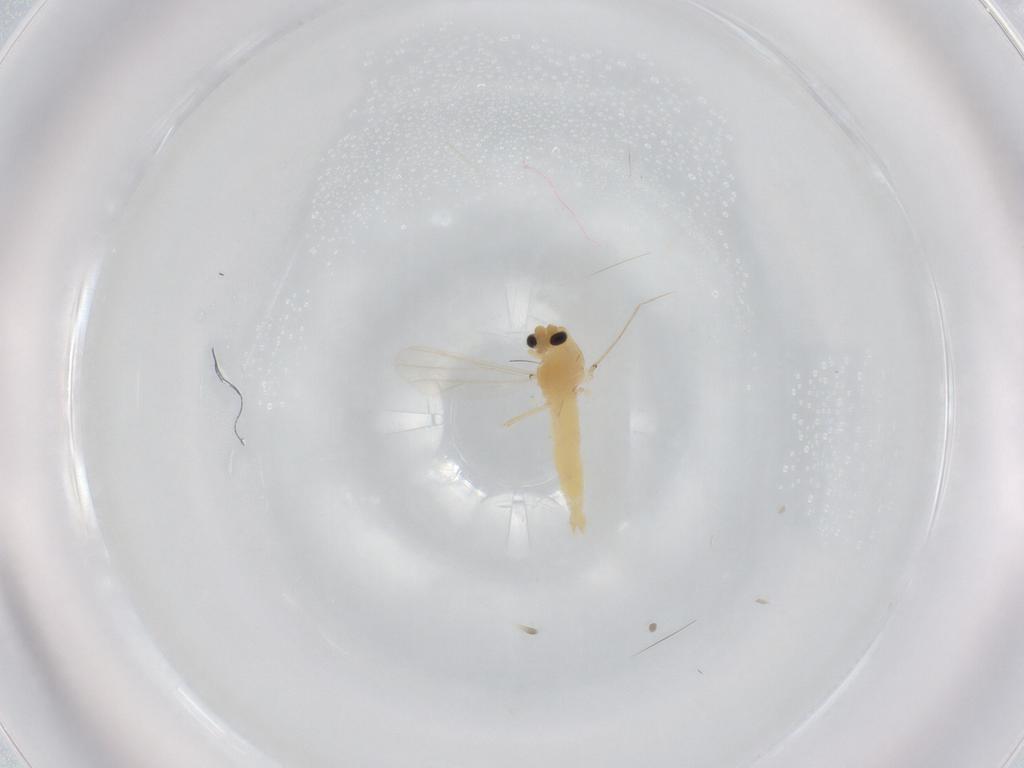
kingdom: Animalia
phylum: Arthropoda
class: Insecta
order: Diptera
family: Chironomidae
